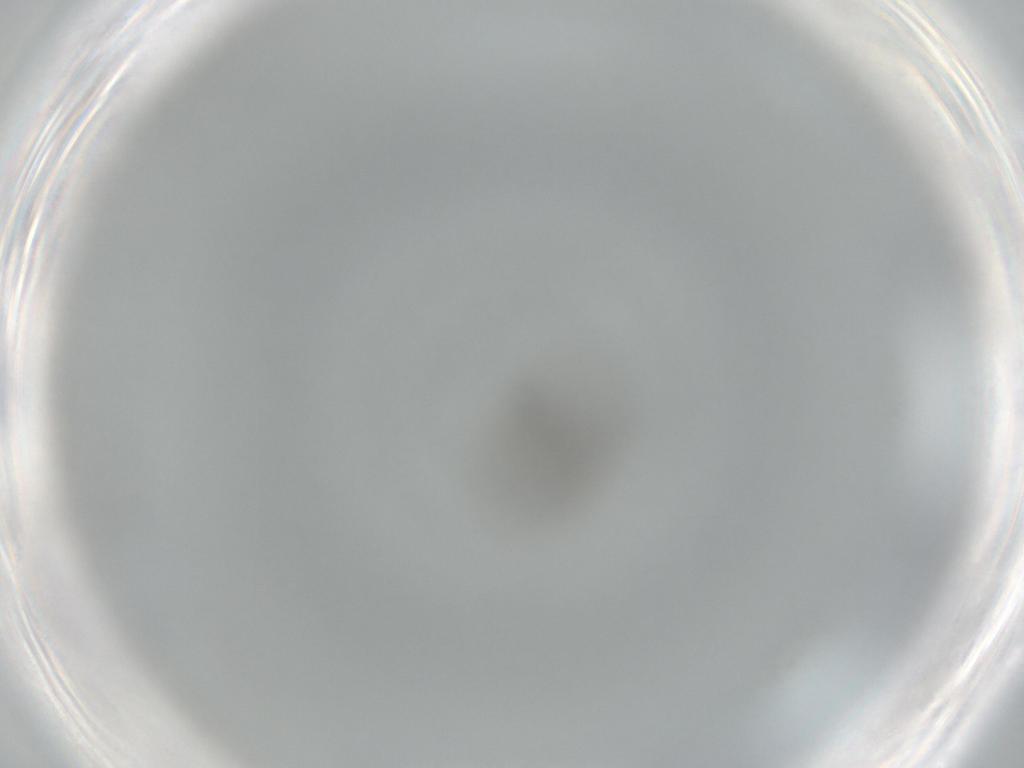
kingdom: Animalia
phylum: Arthropoda
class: Insecta
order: Diptera
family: Chironomidae
